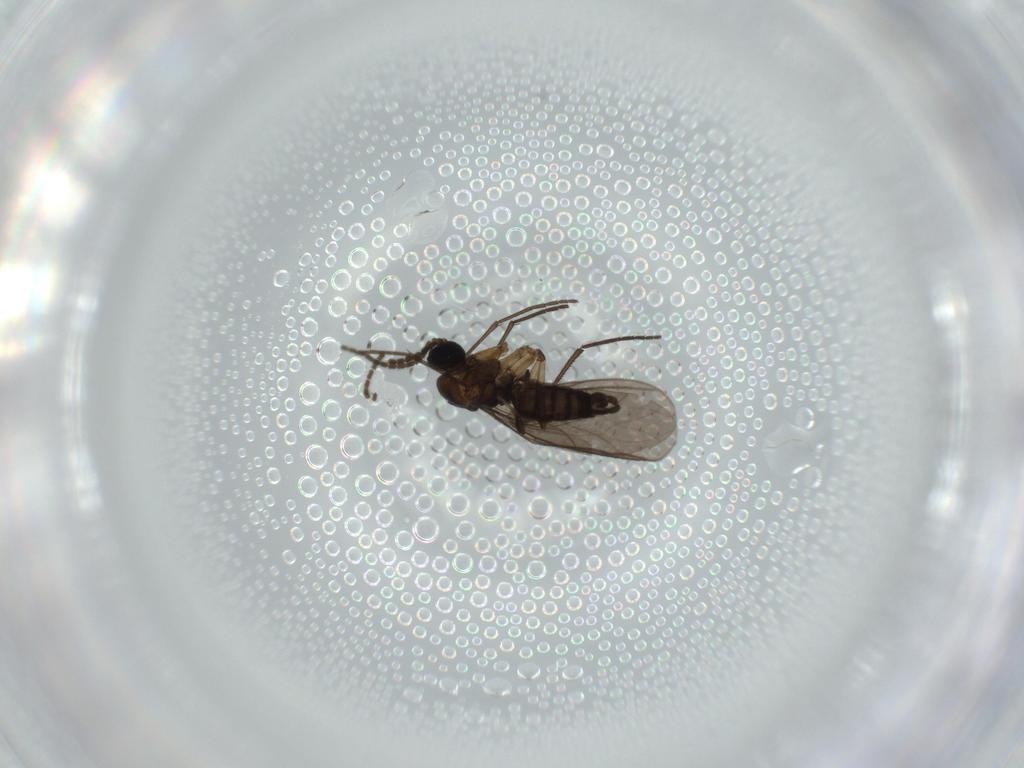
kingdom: Animalia
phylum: Arthropoda
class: Insecta
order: Diptera
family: Sciaridae
